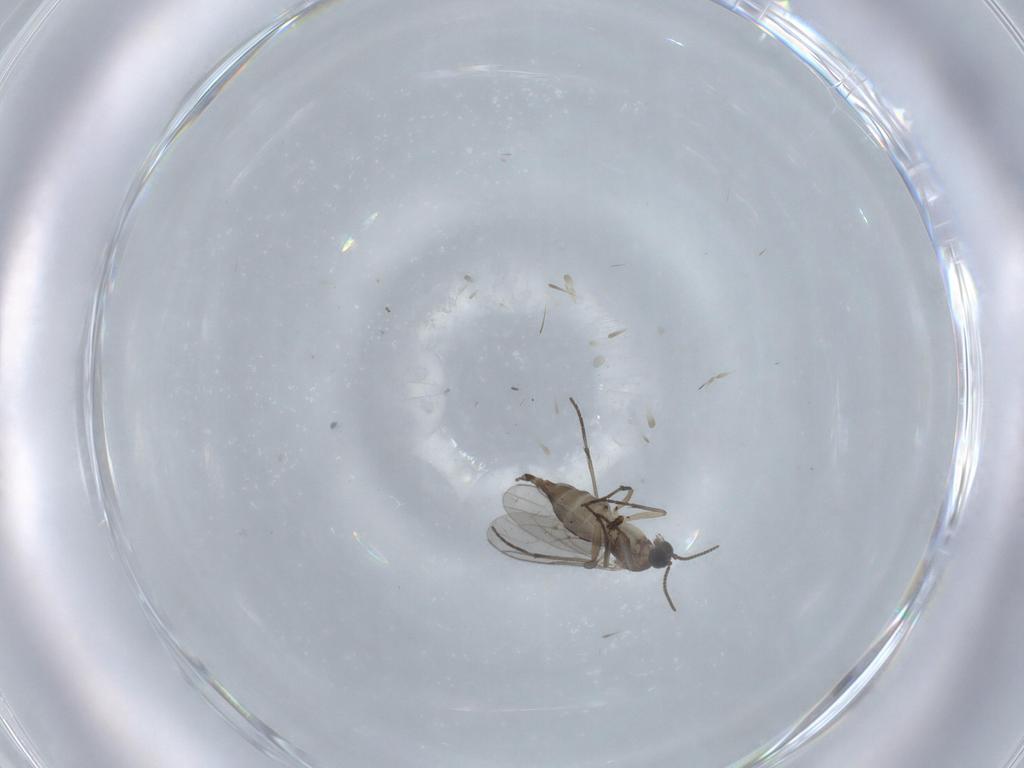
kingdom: Animalia
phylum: Arthropoda
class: Insecta
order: Diptera
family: Sciaridae
